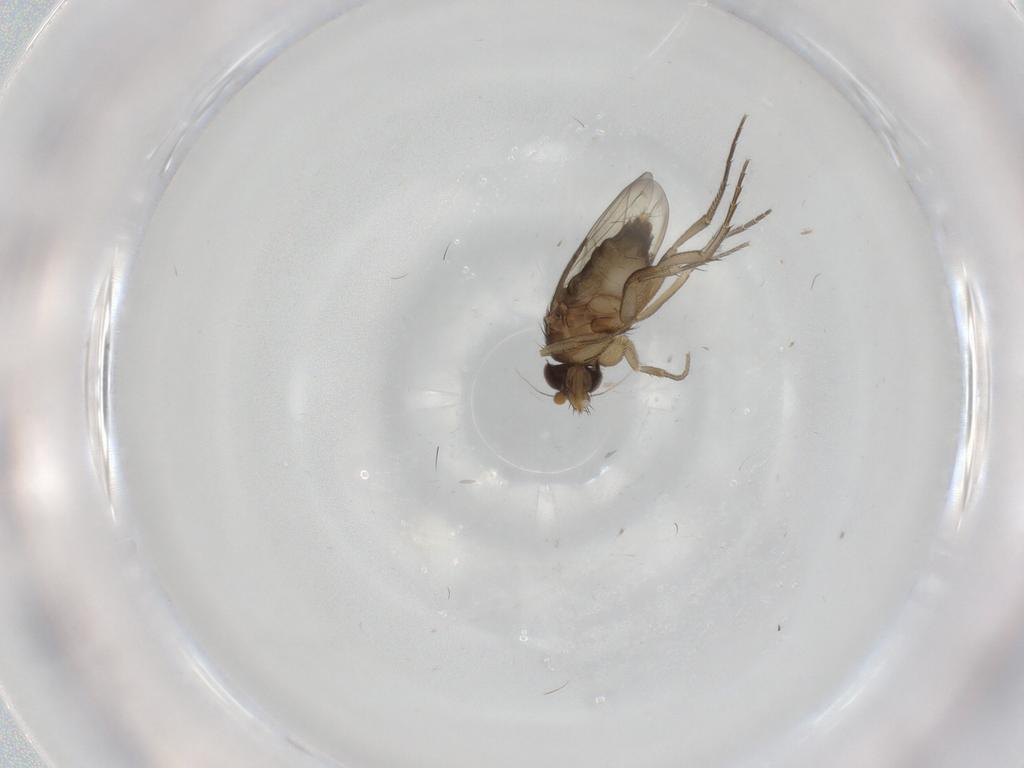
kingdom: Animalia
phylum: Arthropoda
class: Insecta
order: Diptera
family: Phoridae
